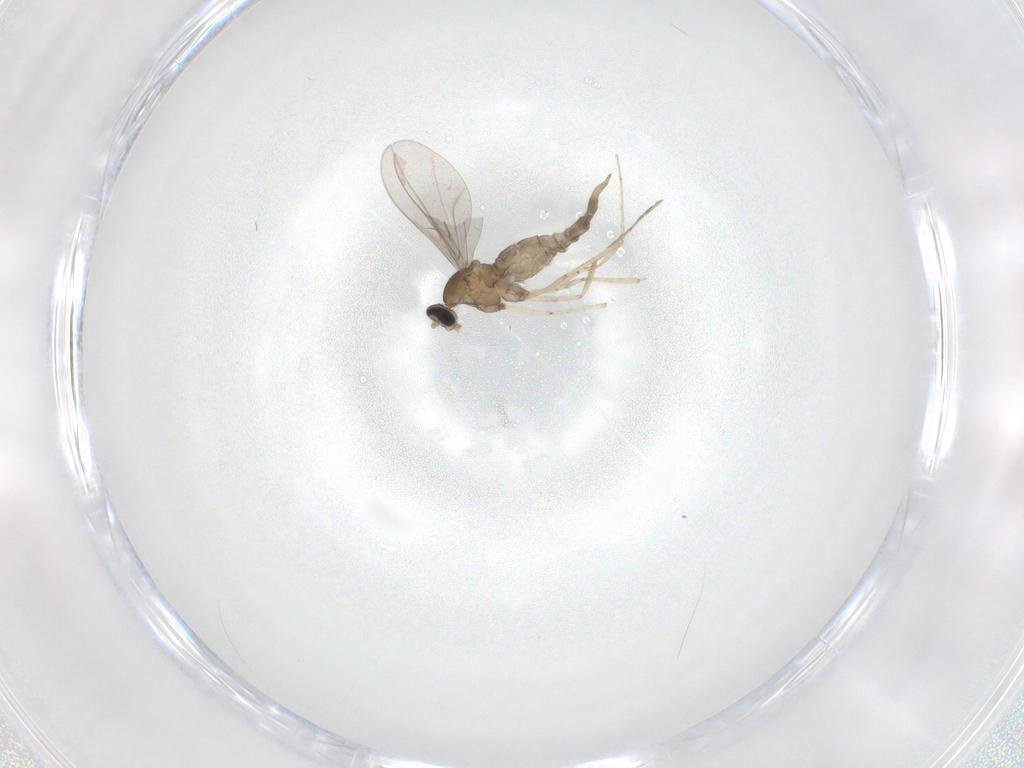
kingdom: Animalia
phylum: Arthropoda
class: Insecta
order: Diptera
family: Cecidomyiidae
